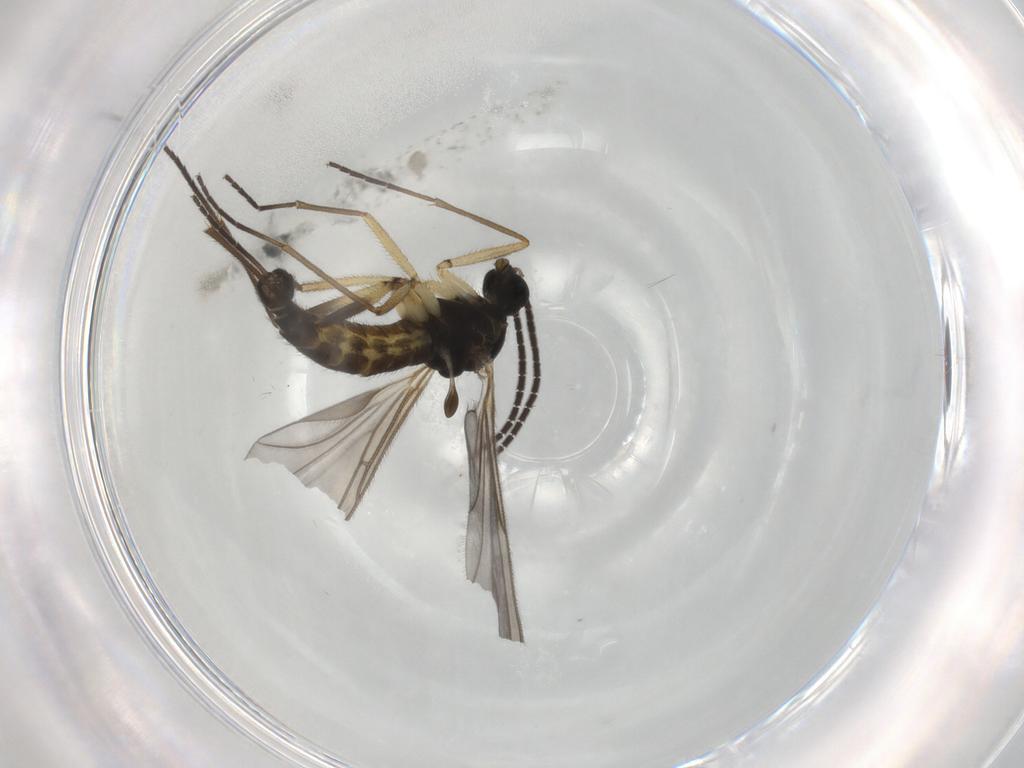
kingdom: Animalia
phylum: Arthropoda
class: Insecta
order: Diptera
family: Sciaridae
